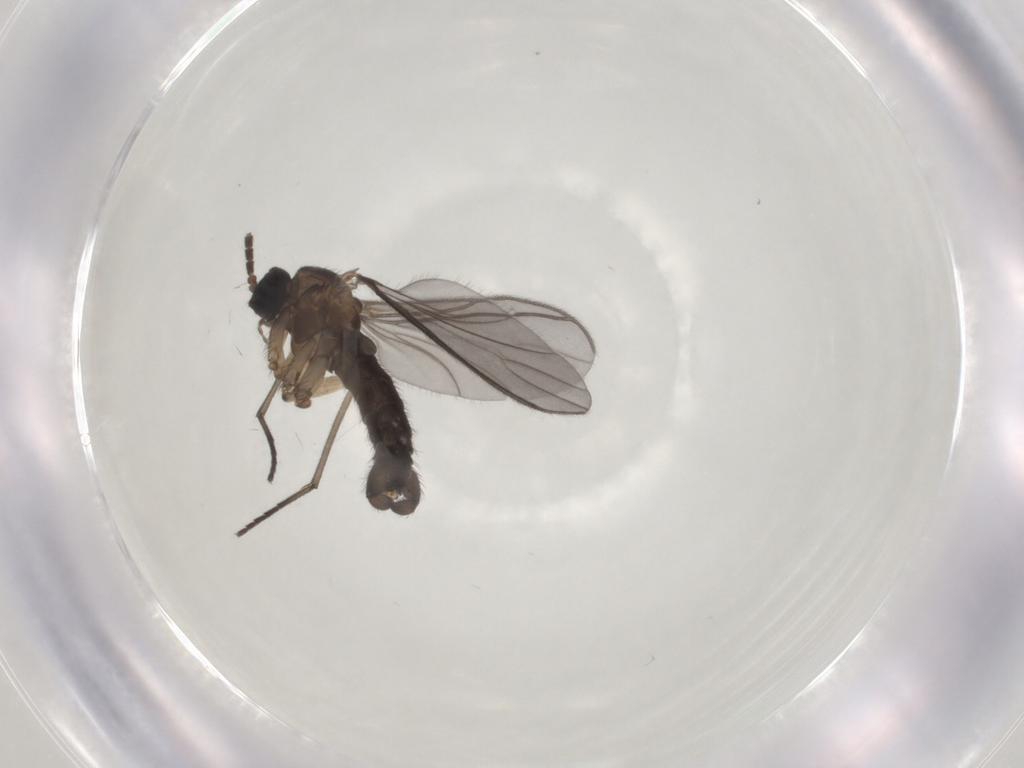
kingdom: Animalia
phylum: Arthropoda
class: Insecta
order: Diptera
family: Sciaridae
